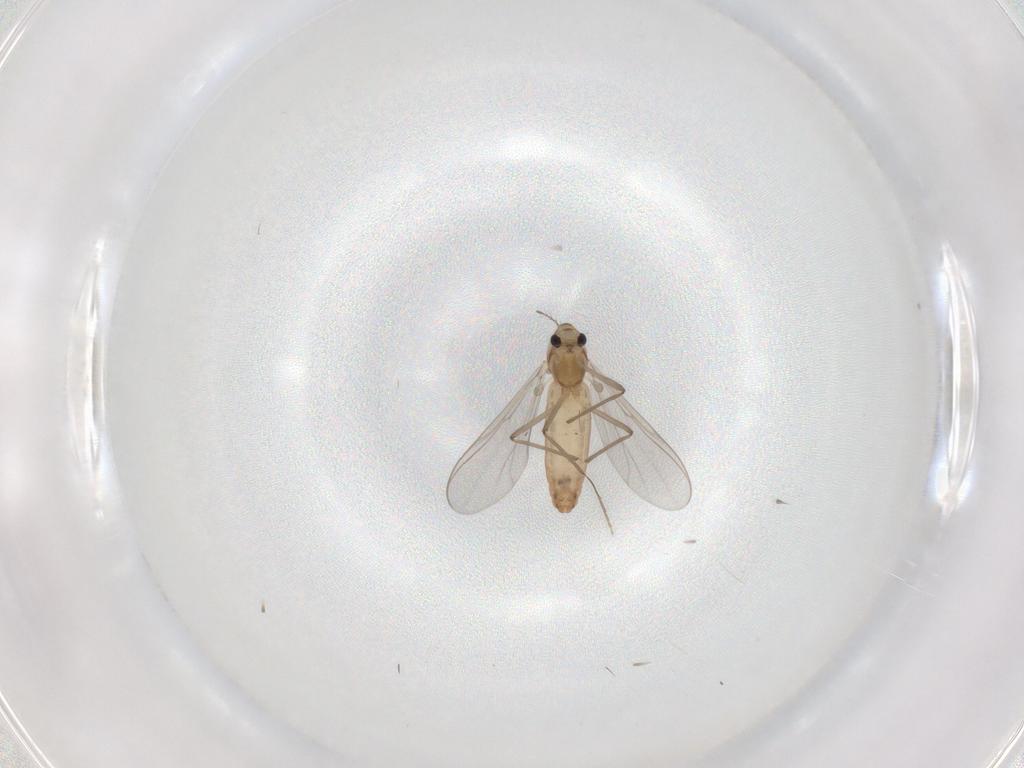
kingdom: Animalia
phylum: Arthropoda
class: Insecta
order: Diptera
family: Chironomidae
